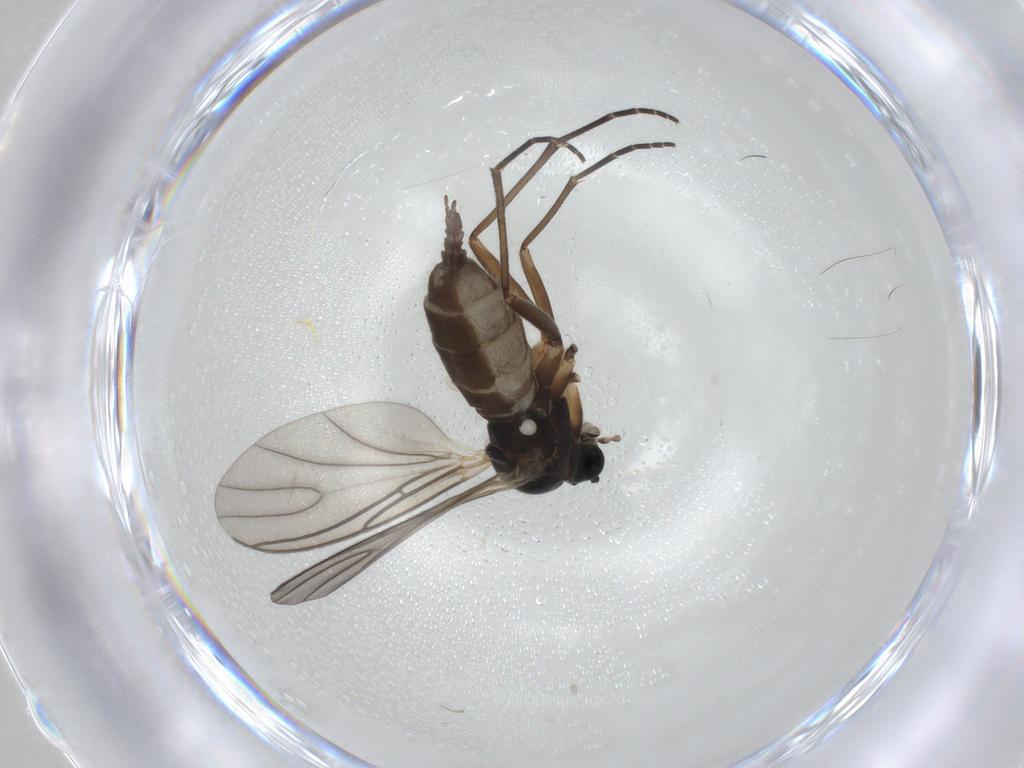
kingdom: Animalia
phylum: Arthropoda
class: Insecta
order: Diptera
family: Sciaridae
